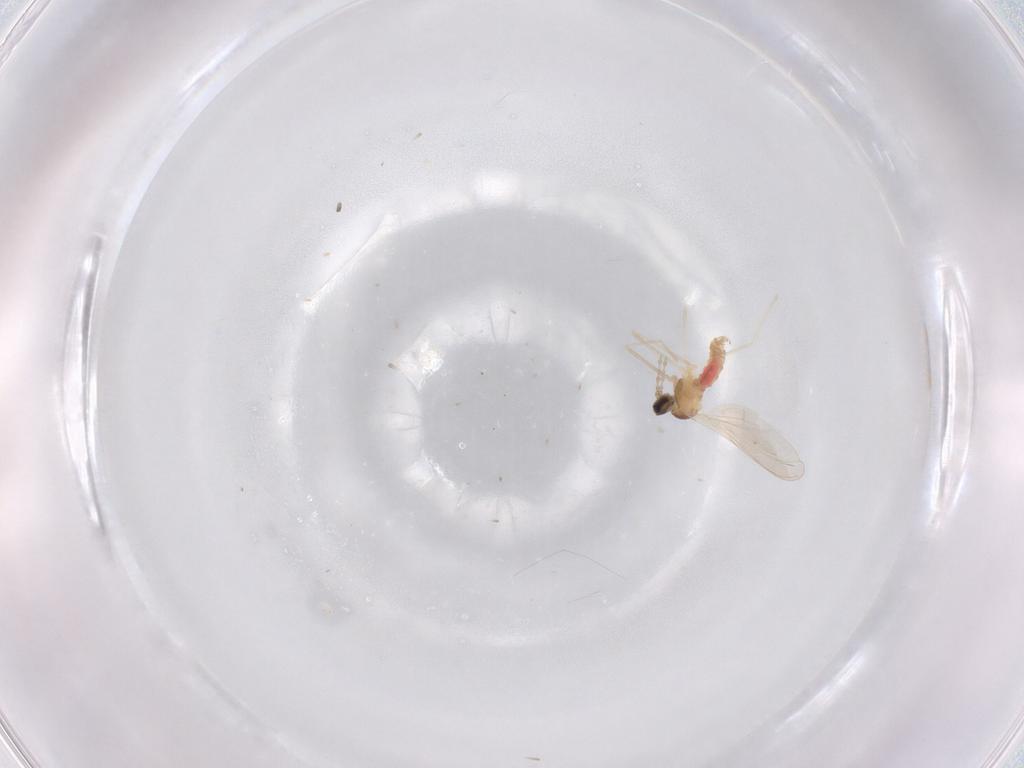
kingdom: Animalia
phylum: Arthropoda
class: Insecta
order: Diptera
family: Cecidomyiidae
